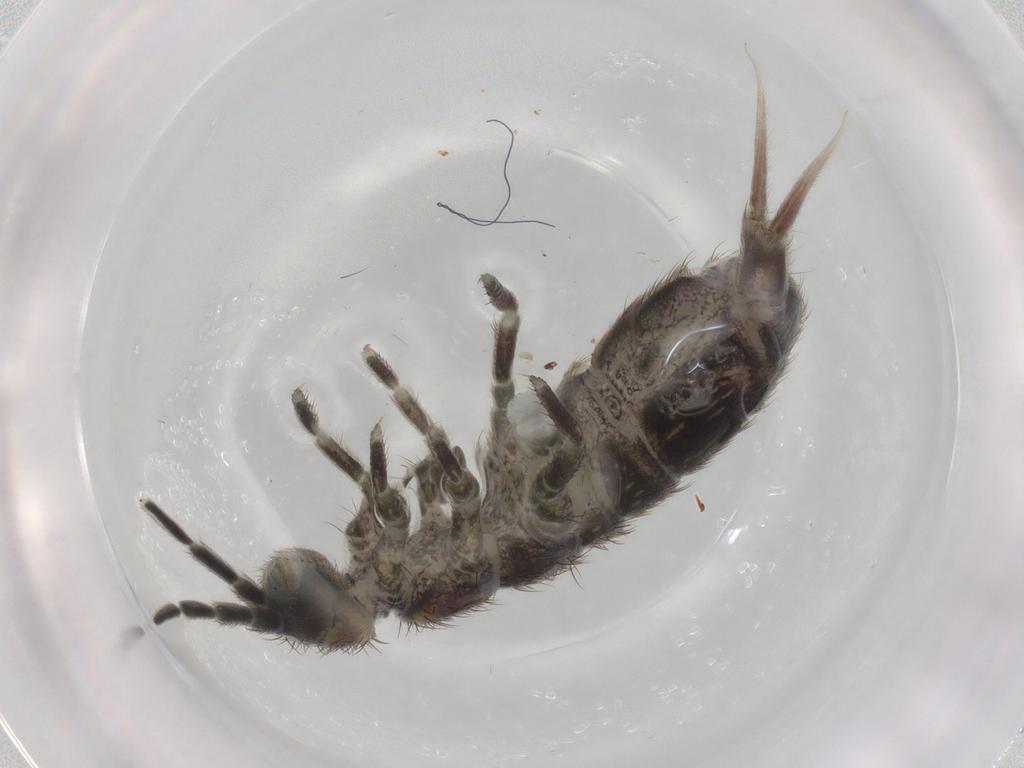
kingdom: Animalia
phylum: Arthropoda
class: Collembola
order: Entomobryomorpha
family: Isotomidae
